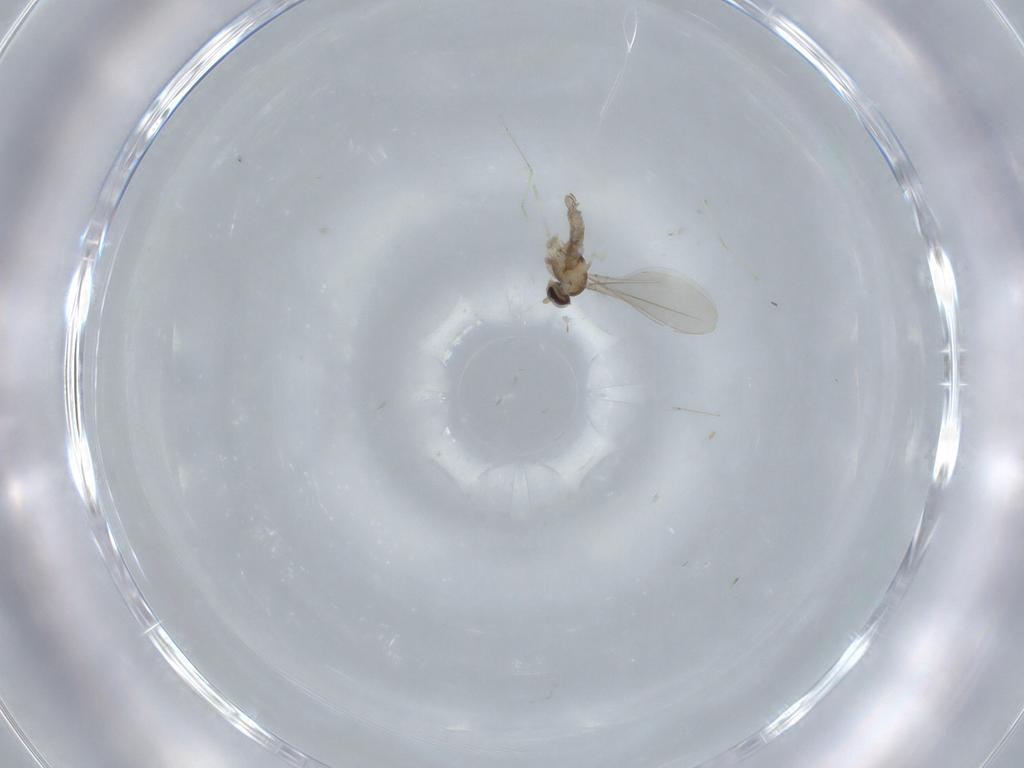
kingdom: Animalia
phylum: Arthropoda
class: Insecta
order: Diptera
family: Cecidomyiidae
